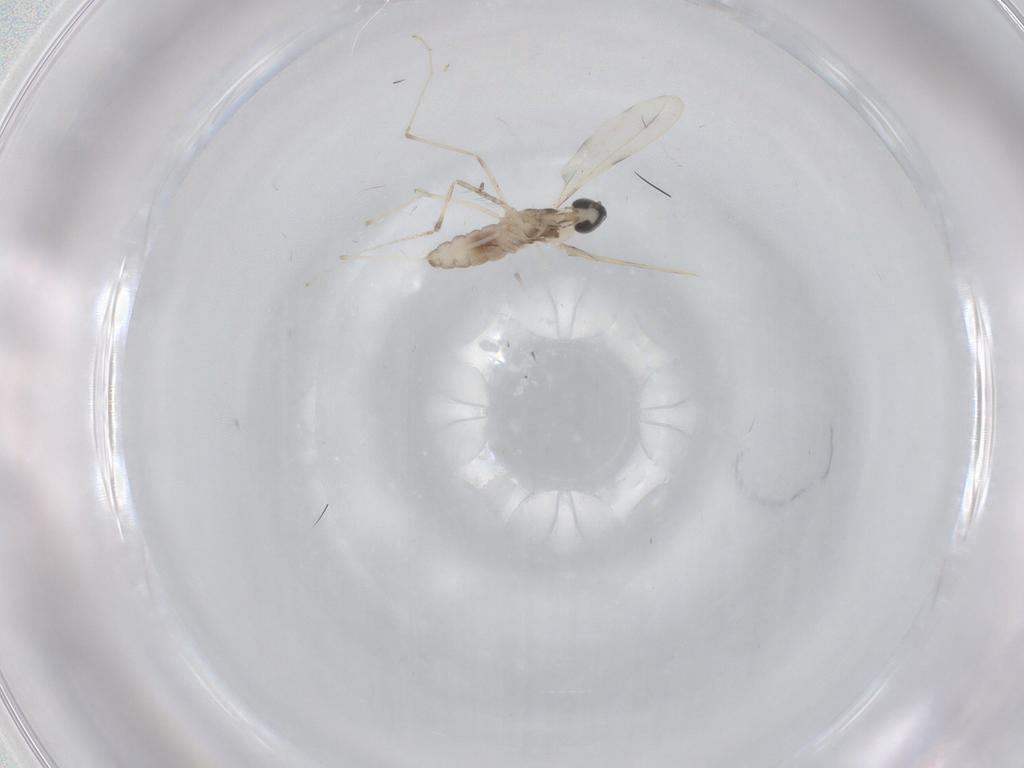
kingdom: Animalia
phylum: Arthropoda
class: Insecta
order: Diptera
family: Cecidomyiidae
